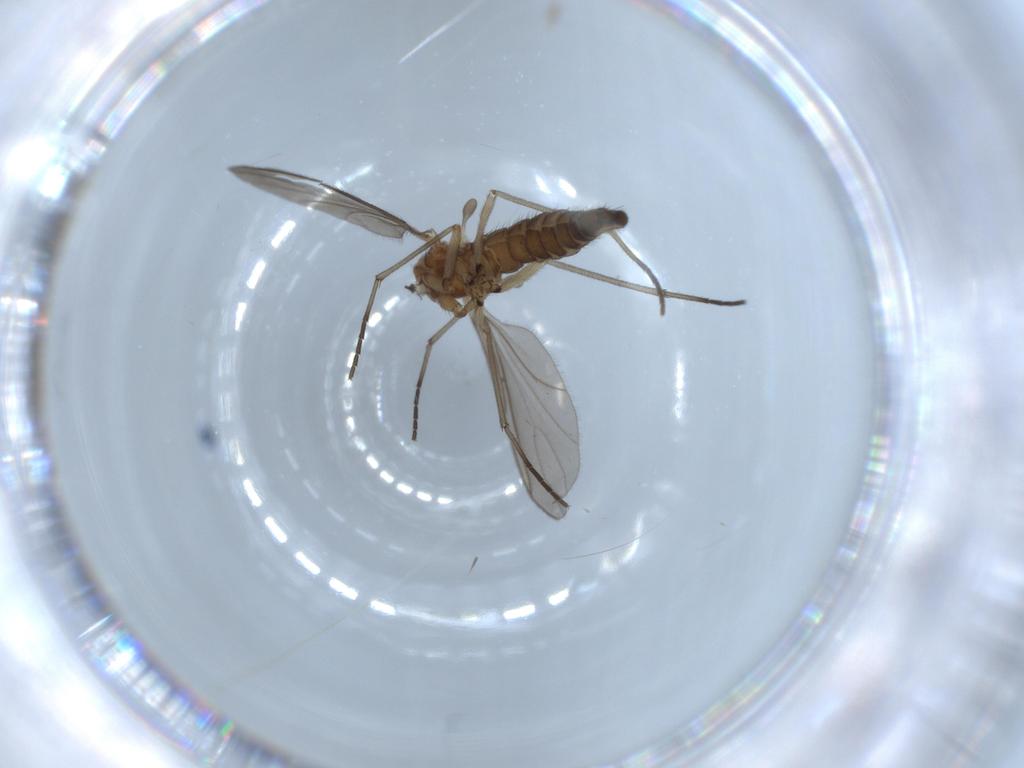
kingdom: Animalia
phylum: Arthropoda
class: Insecta
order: Diptera
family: Sciaridae
